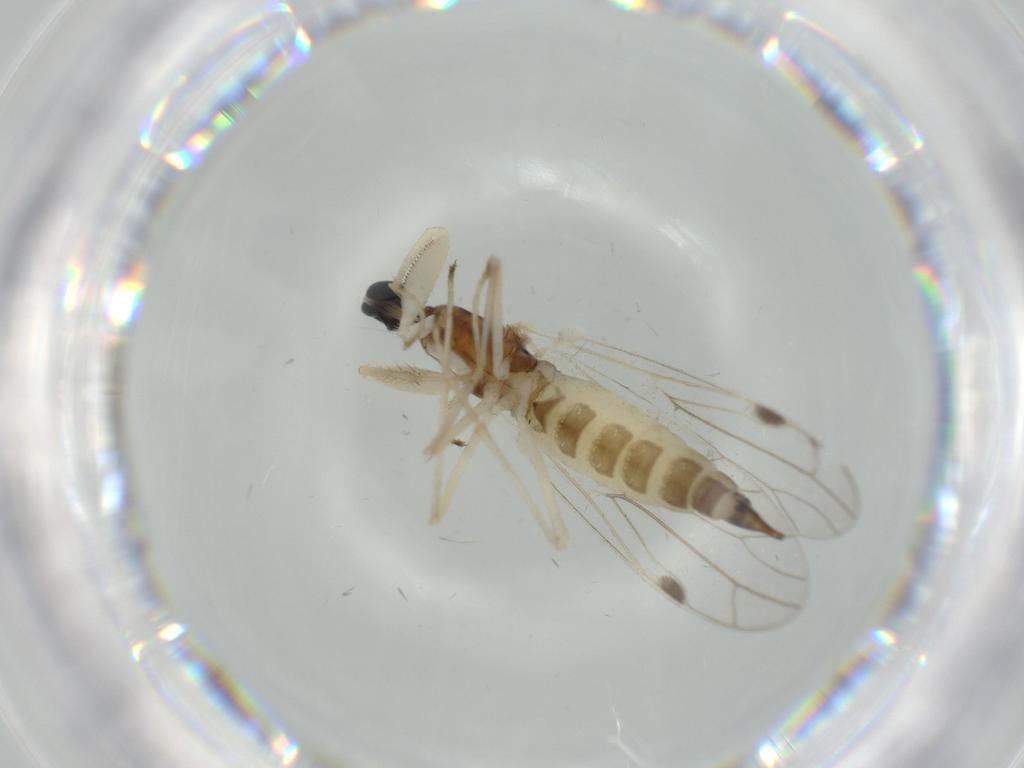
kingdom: Animalia
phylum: Arthropoda
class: Insecta
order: Diptera
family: Empididae
